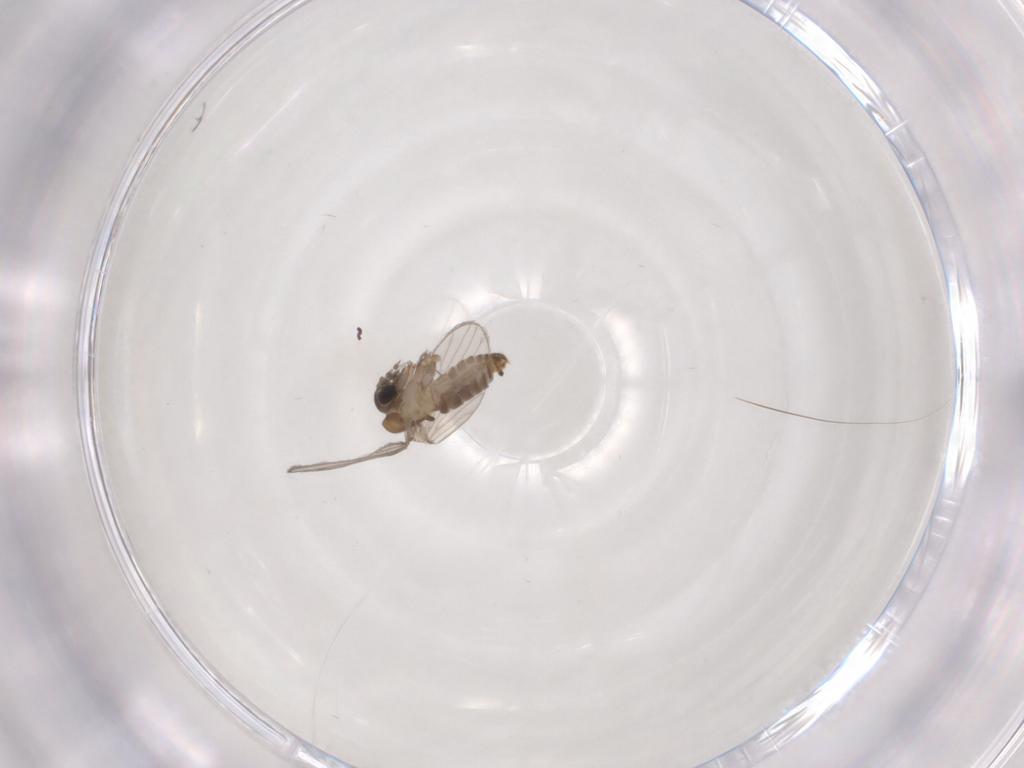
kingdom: Animalia
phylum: Arthropoda
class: Insecta
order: Diptera
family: Psychodidae
